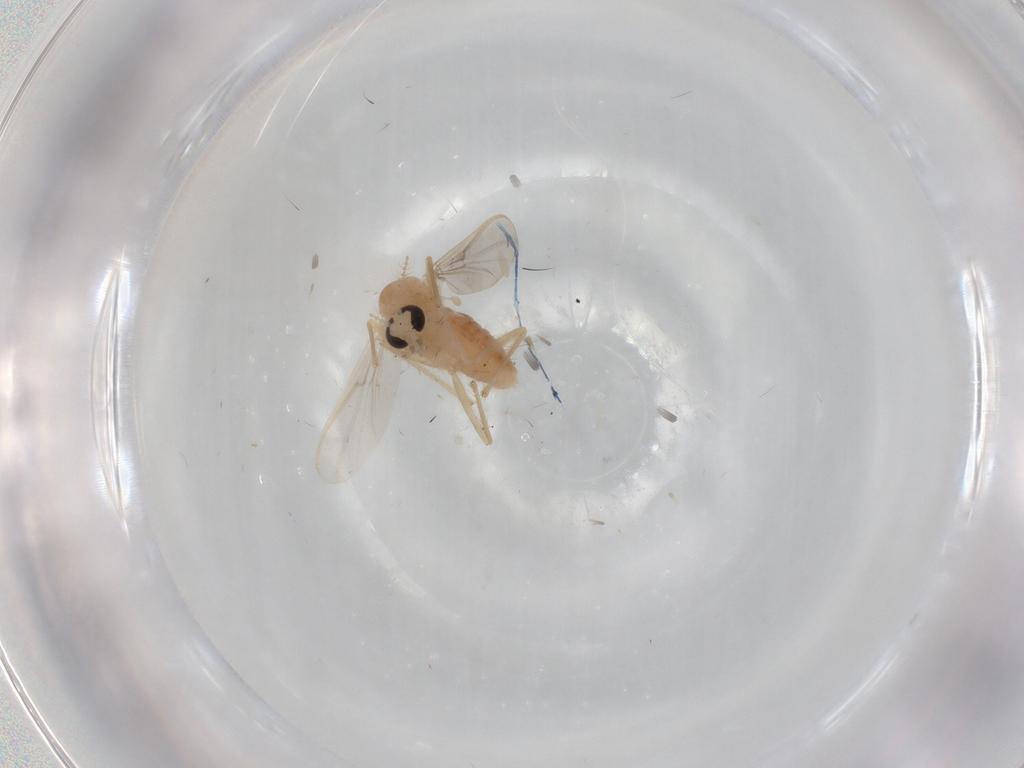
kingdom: Animalia
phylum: Arthropoda
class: Insecta
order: Diptera
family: Chironomidae
